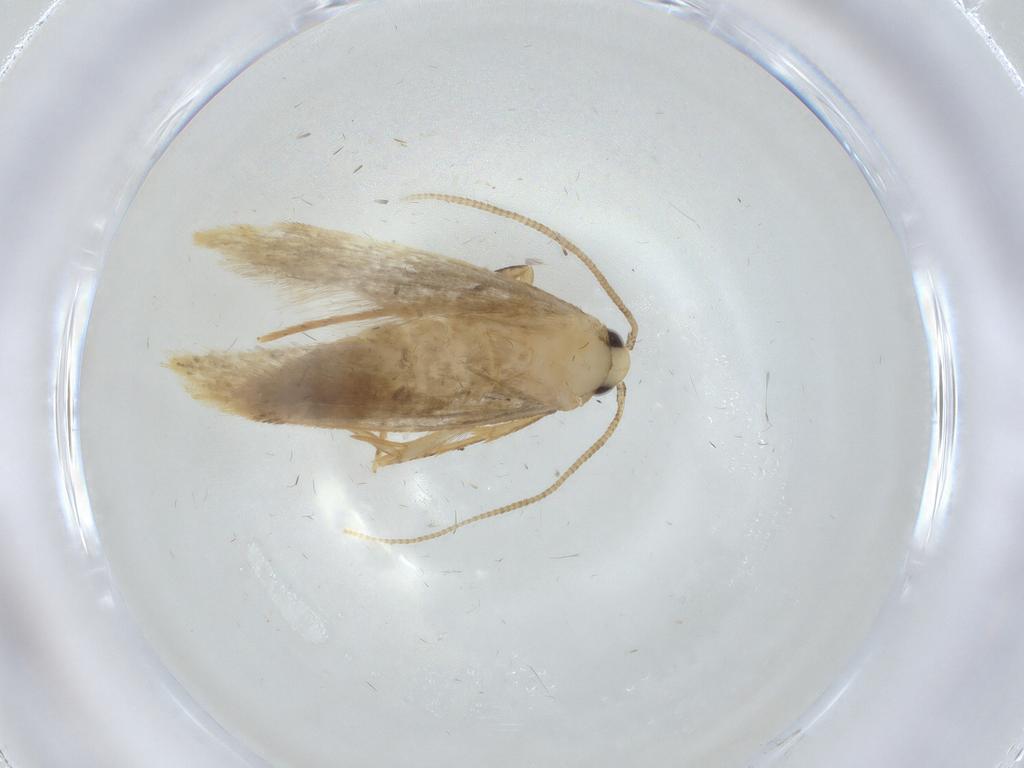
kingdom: Animalia
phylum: Arthropoda
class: Insecta
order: Lepidoptera
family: Tineidae
